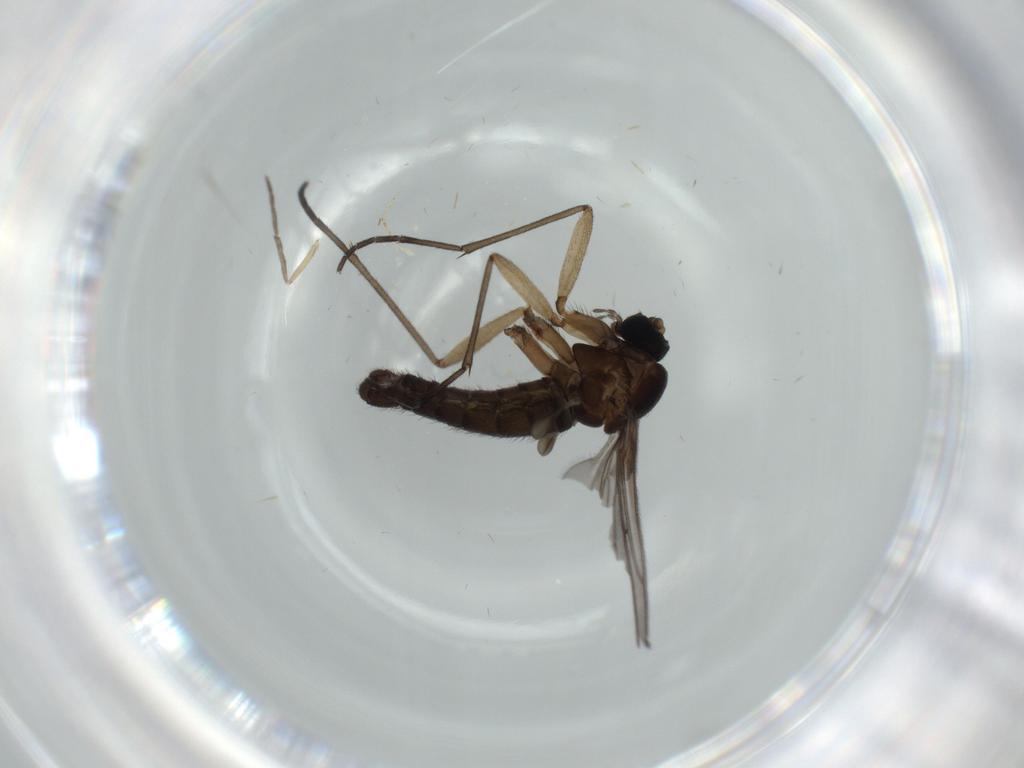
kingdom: Animalia
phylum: Arthropoda
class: Insecta
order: Diptera
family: Sciaridae
